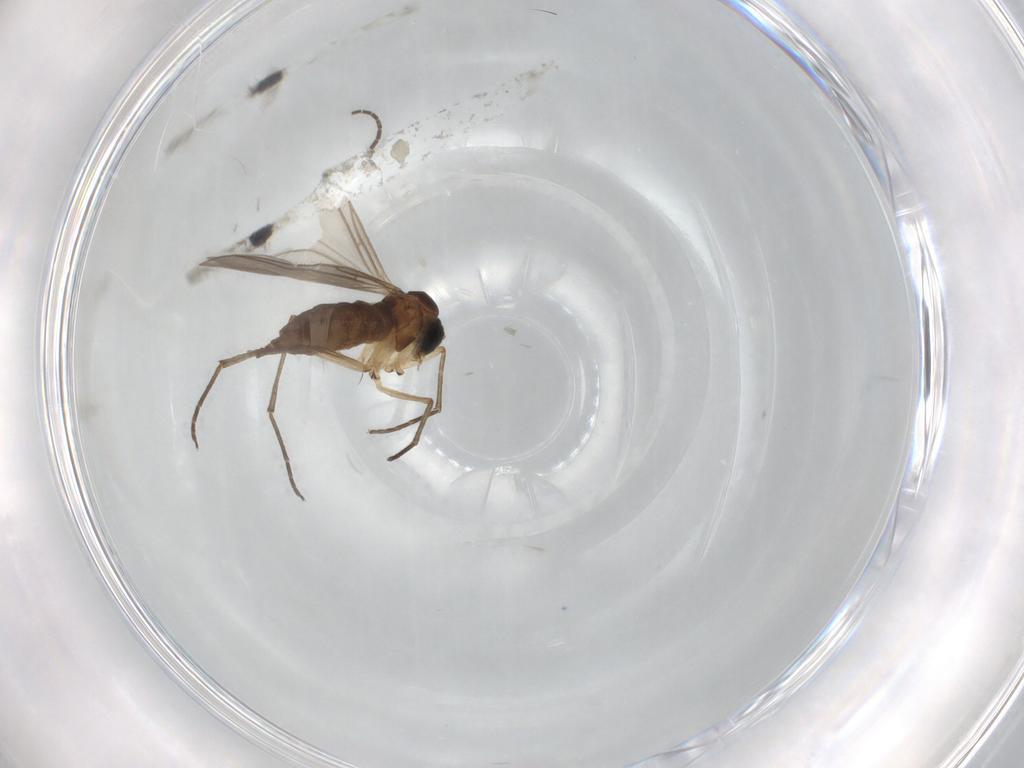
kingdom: Animalia
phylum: Arthropoda
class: Insecta
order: Diptera
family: Sciaridae
